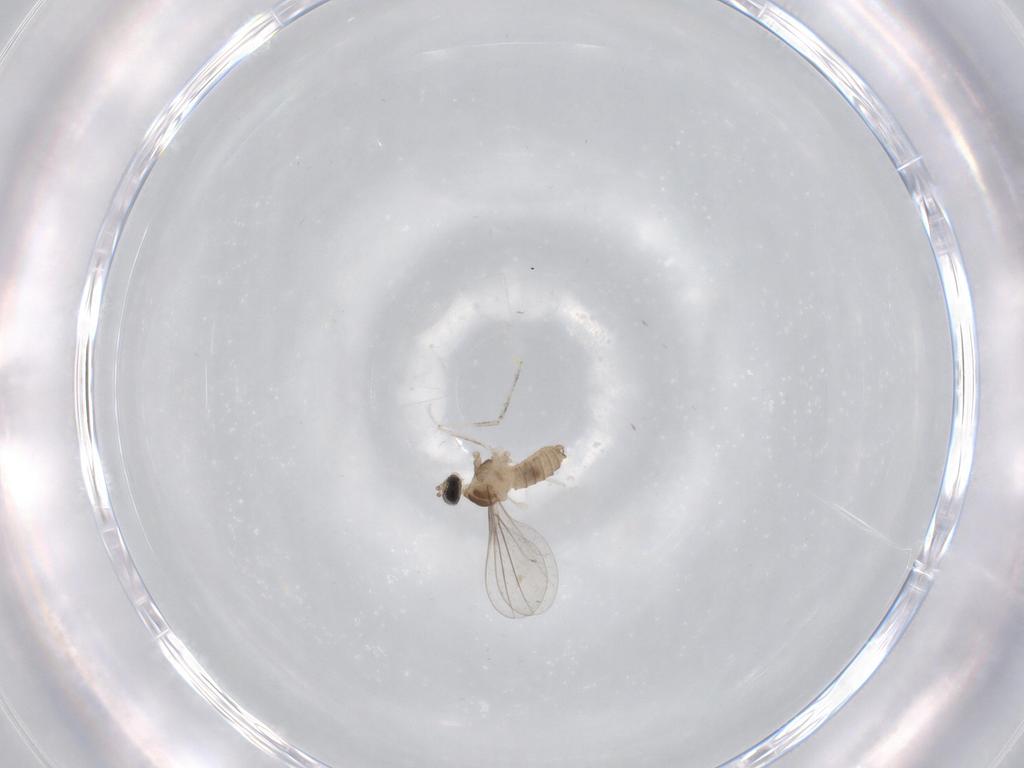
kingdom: Animalia
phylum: Arthropoda
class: Insecta
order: Diptera
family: Cecidomyiidae
